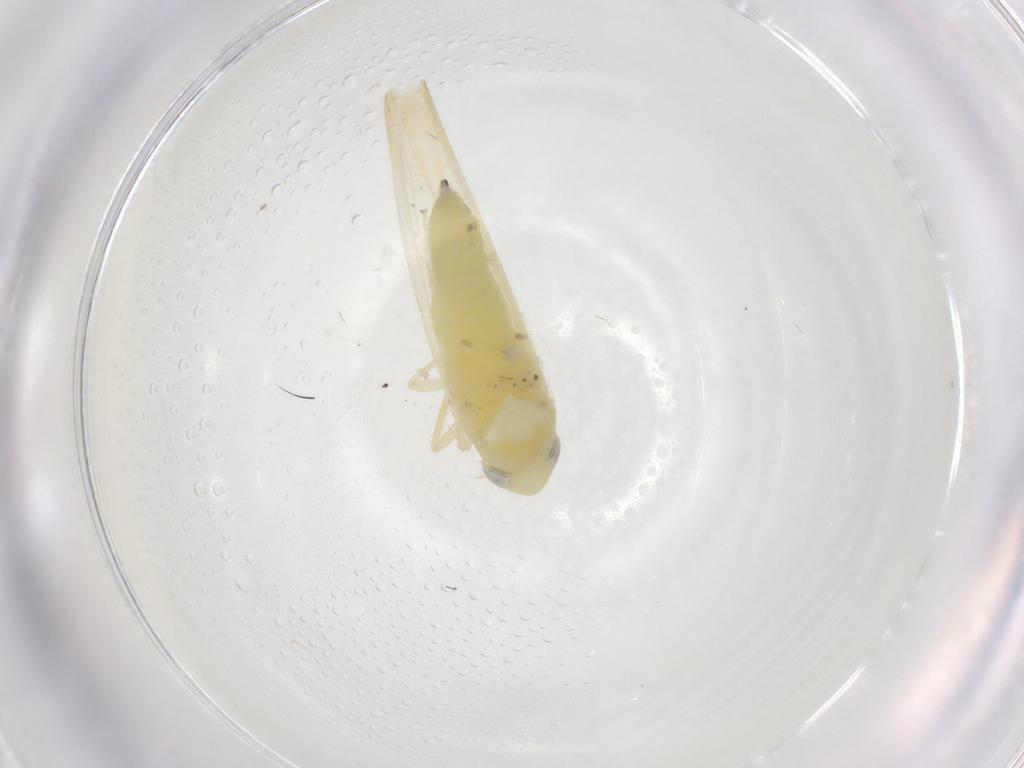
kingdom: Animalia
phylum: Arthropoda
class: Insecta
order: Hemiptera
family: Cicadellidae
